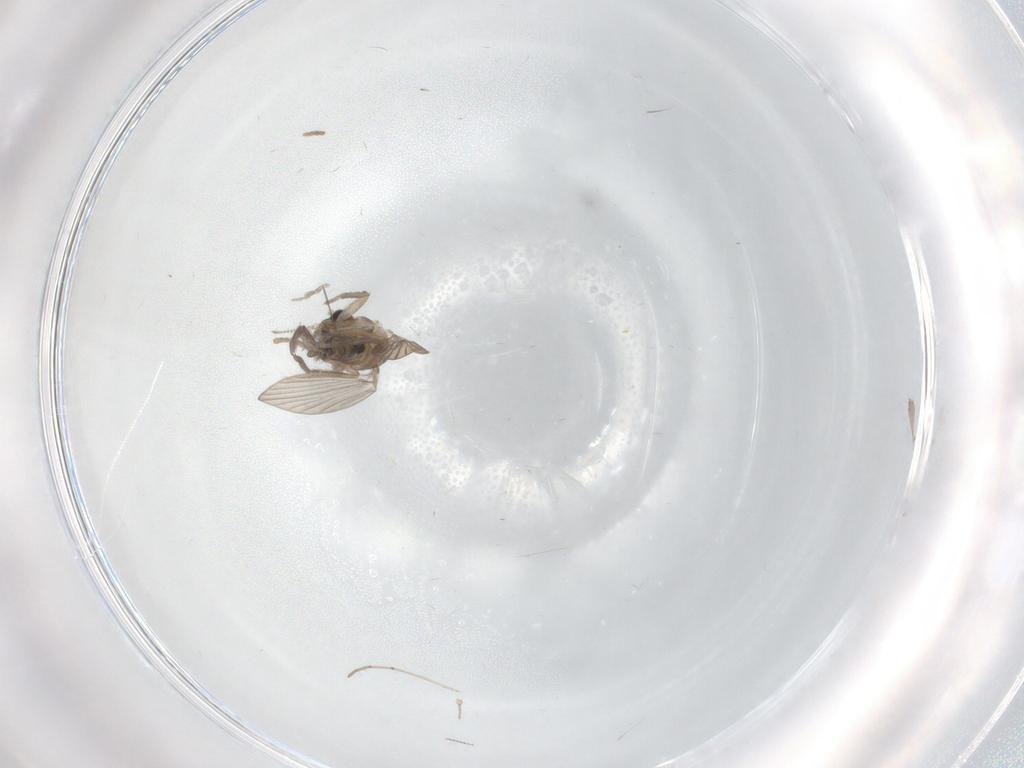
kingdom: Animalia
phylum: Arthropoda
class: Insecta
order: Diptera
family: Psychodidae
